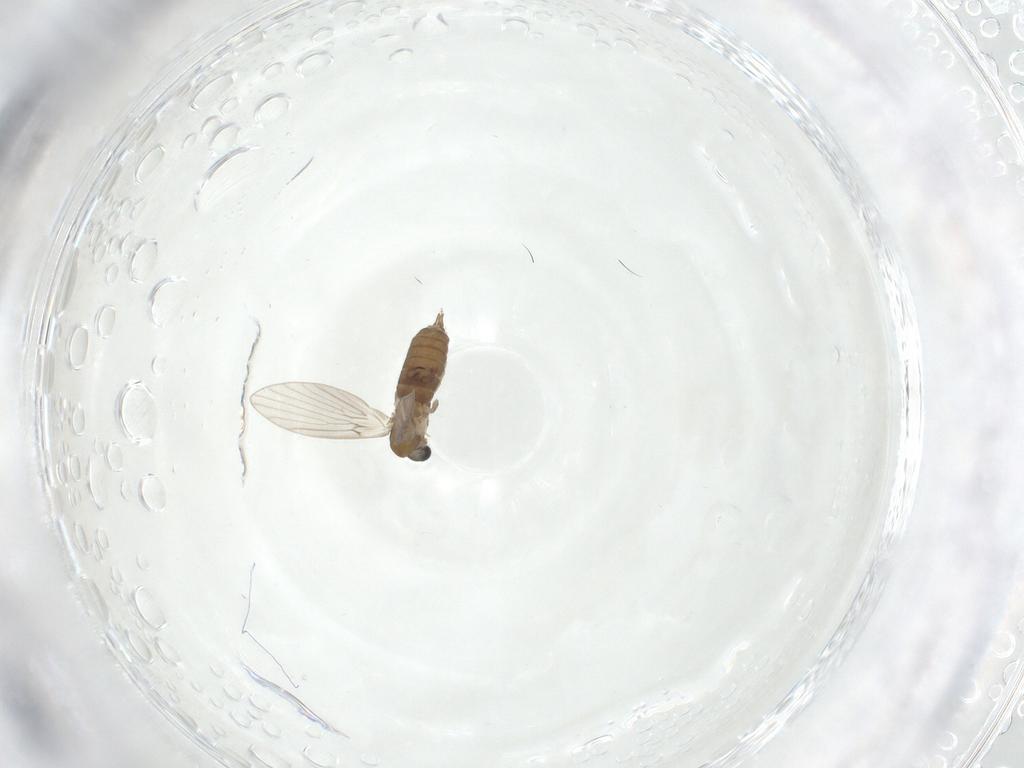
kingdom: Animalia
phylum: Arthropoda
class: Insecta
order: Diptera
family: Psychodidae
